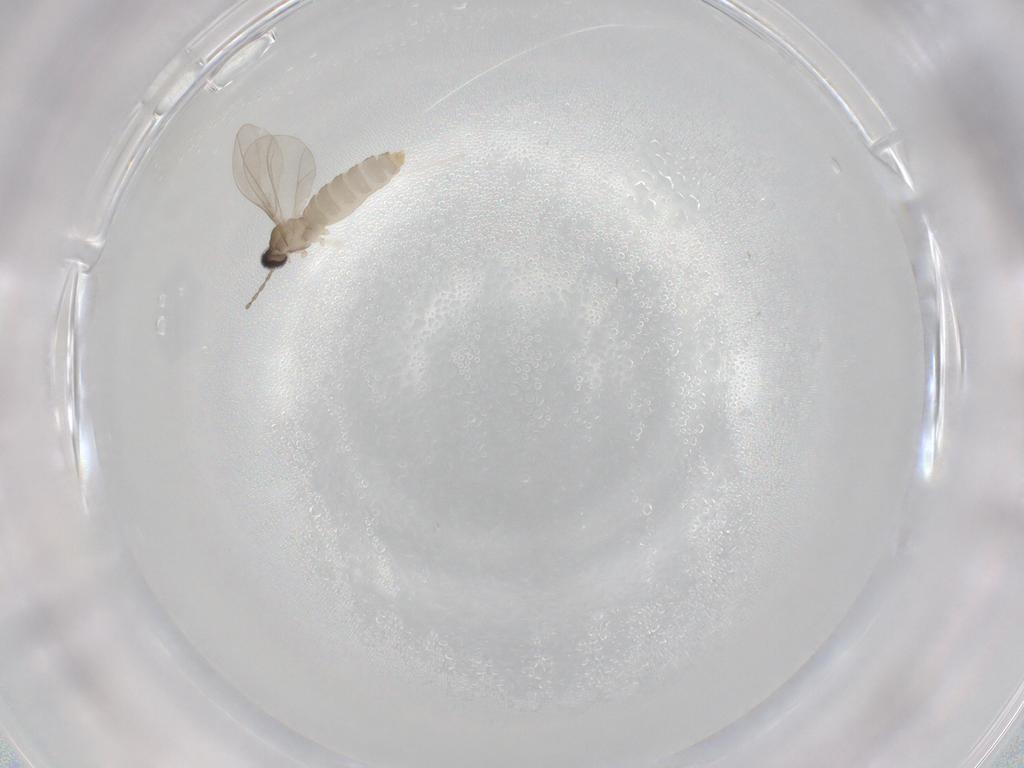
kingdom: Animalia
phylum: Arthropoda
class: Insecta
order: Diptera
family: Cecidomyiidae
